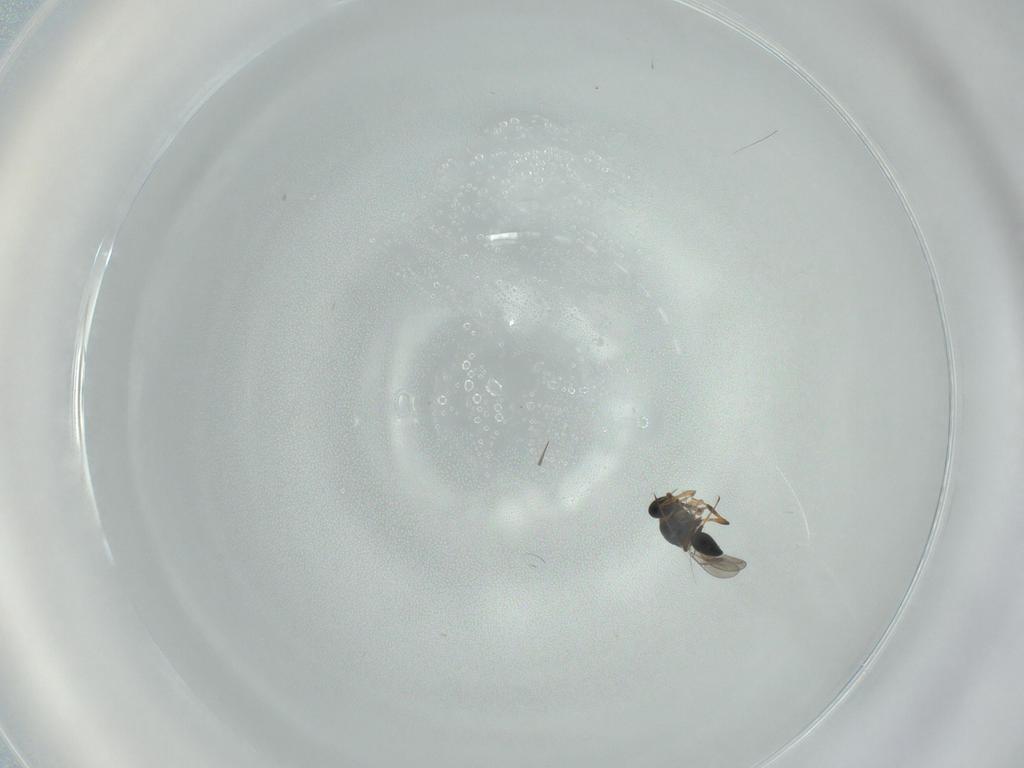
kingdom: Animalia
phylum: Arthropoda
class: Insecta
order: Hymenoptera
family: Platygastridae
